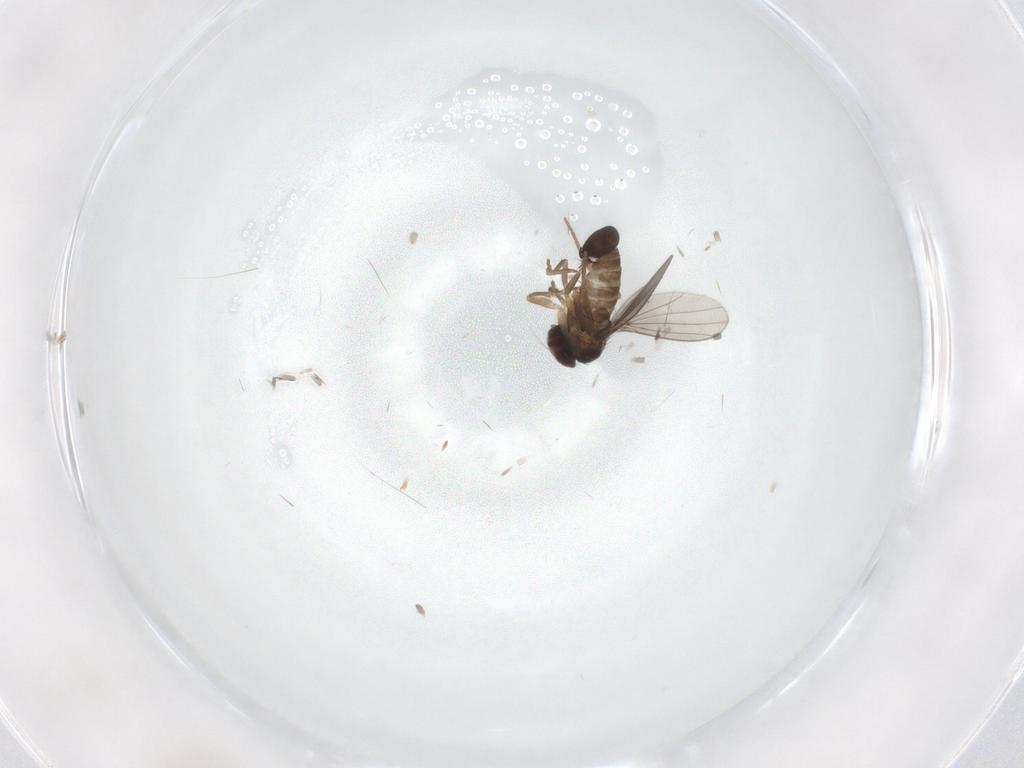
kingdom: Animalia
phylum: Arthropoda
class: Insecta
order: Diptera
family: Dolichopodidae
